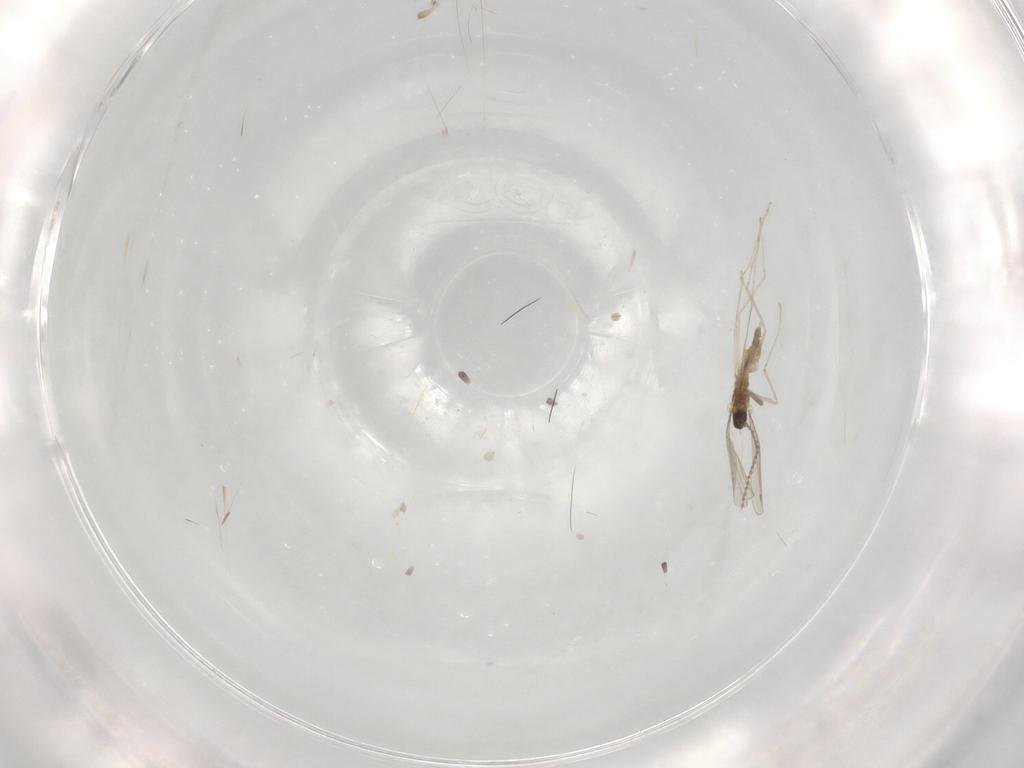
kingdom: Animalia
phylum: Arthropoda
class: Insecta
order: Diptera
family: Cecidomyiidae
